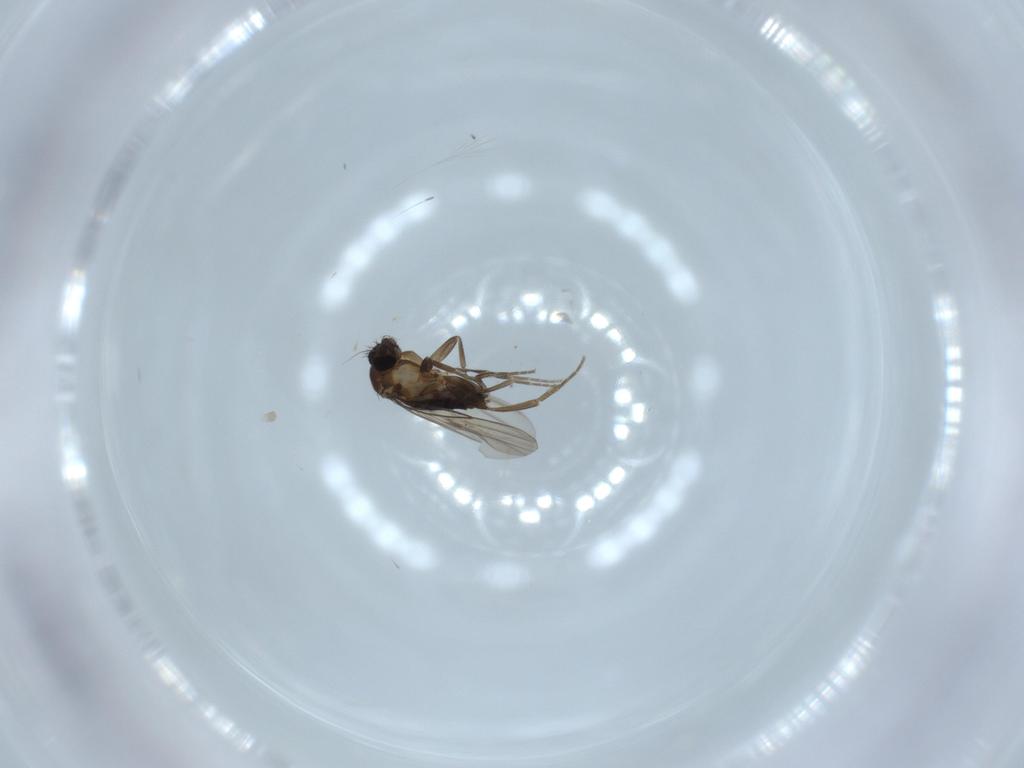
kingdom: Animalia
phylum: Arthropoda
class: Insecta
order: Diptera
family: Phoridae
